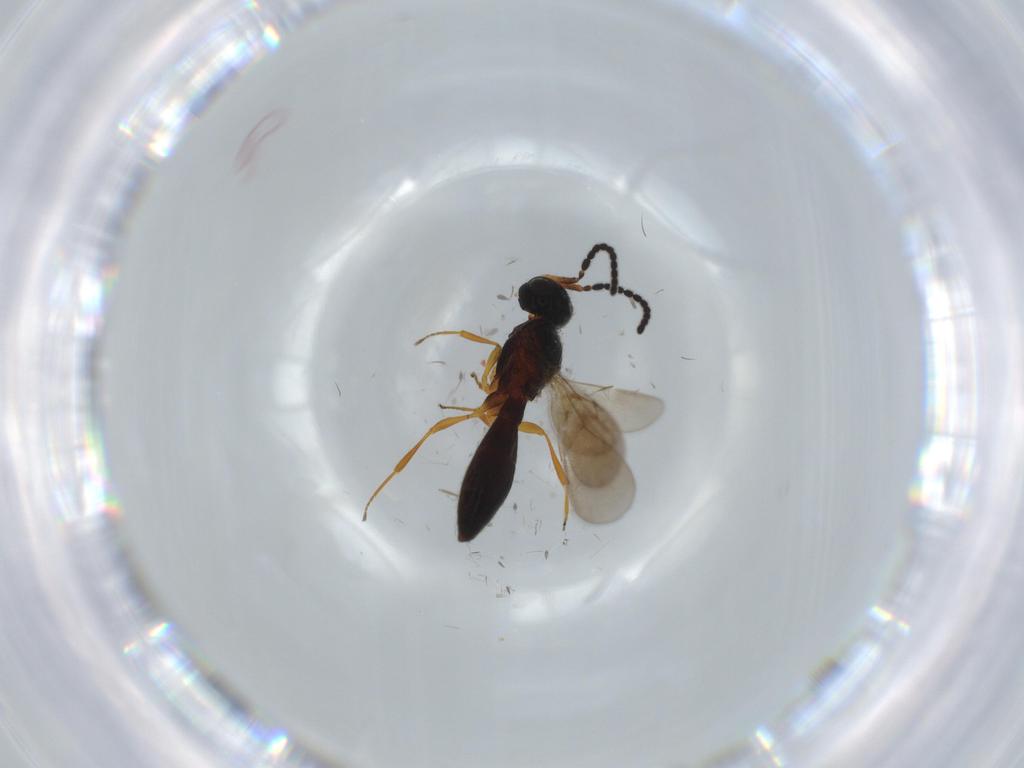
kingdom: Animalia
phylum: Arthropoda
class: Insecta
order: Hymenoptera
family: Scelionidae
